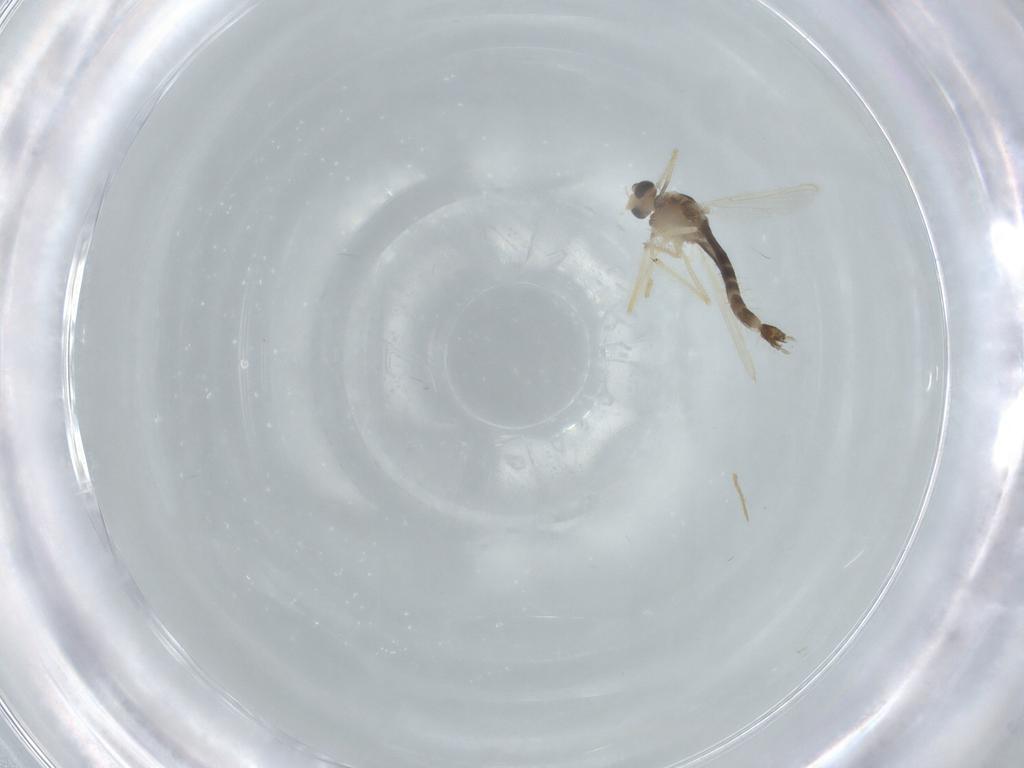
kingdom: Animalia
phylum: Arthropoda
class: Insecta
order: Diptera
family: Chironomidae
